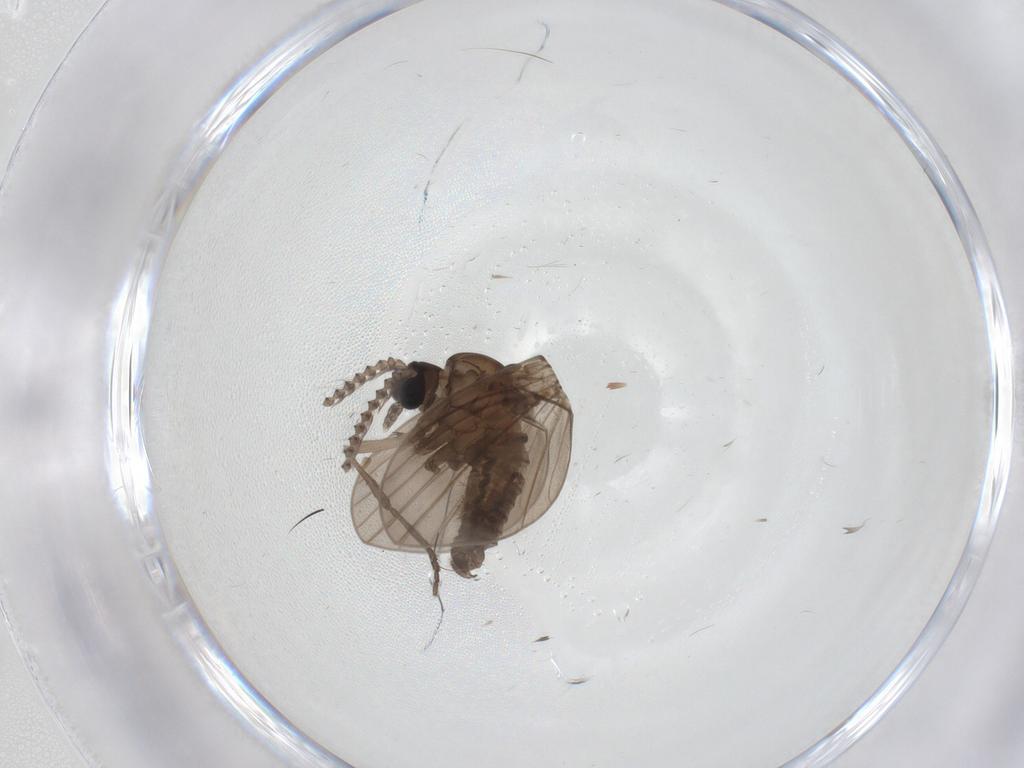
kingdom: Animalia
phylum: Arthropoda
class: Insecta
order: Diptera
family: Psychodidae
